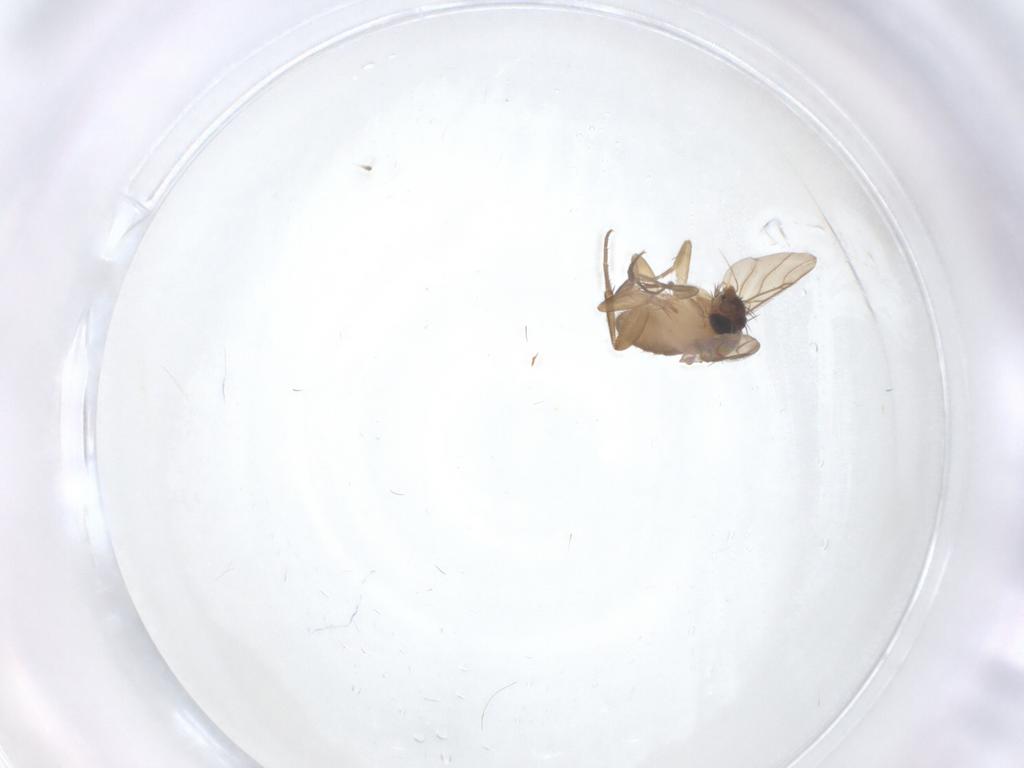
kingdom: Animalia
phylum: Arthropoda
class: Insecta
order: Diptera
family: Phoridae
